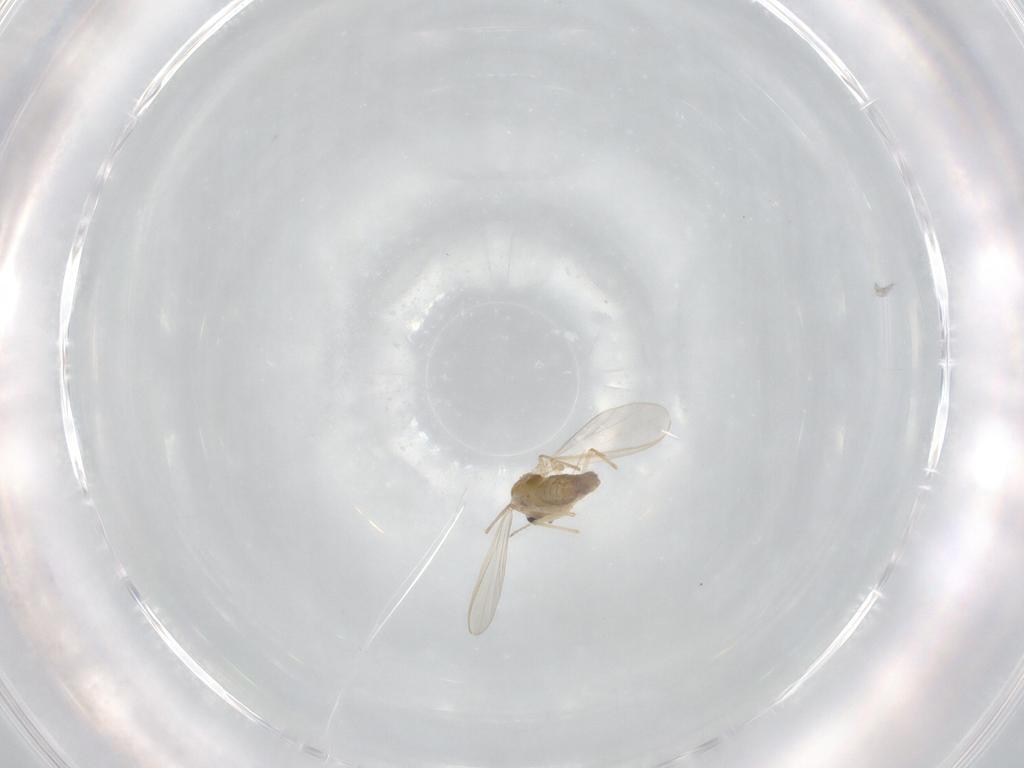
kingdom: Animalia
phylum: Arthropoda
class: Insecta
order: Diptera
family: Chironomidae
